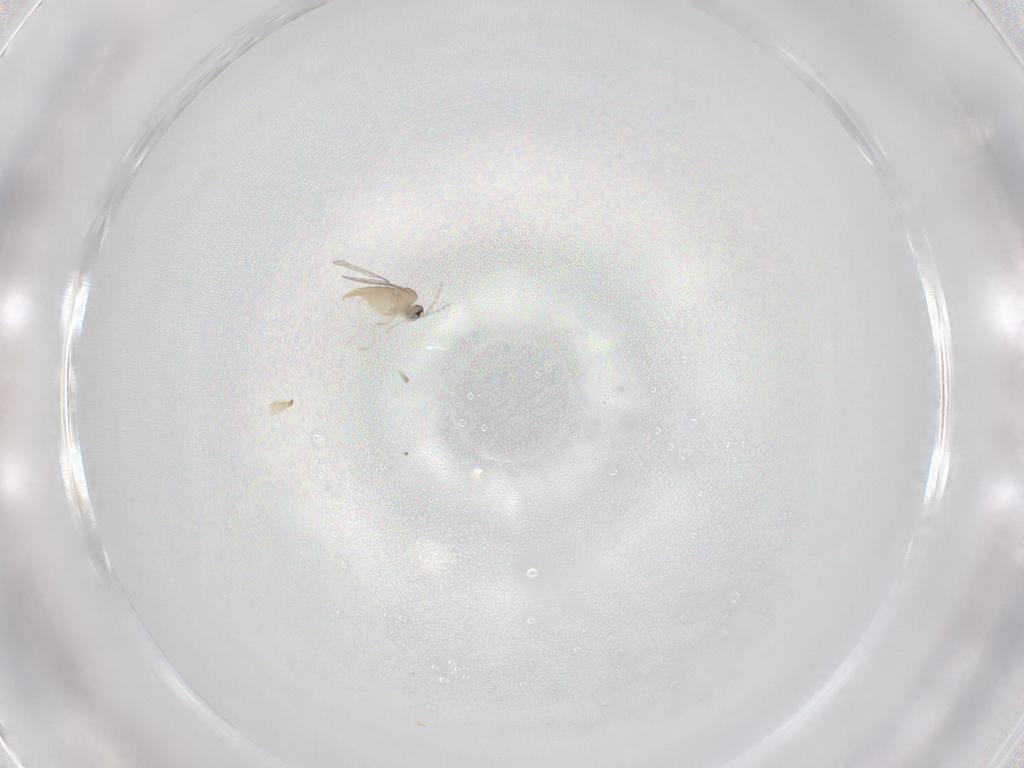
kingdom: Animalia
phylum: Arthropoda
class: Insecta
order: Diptera
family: Cecidomyiidae
